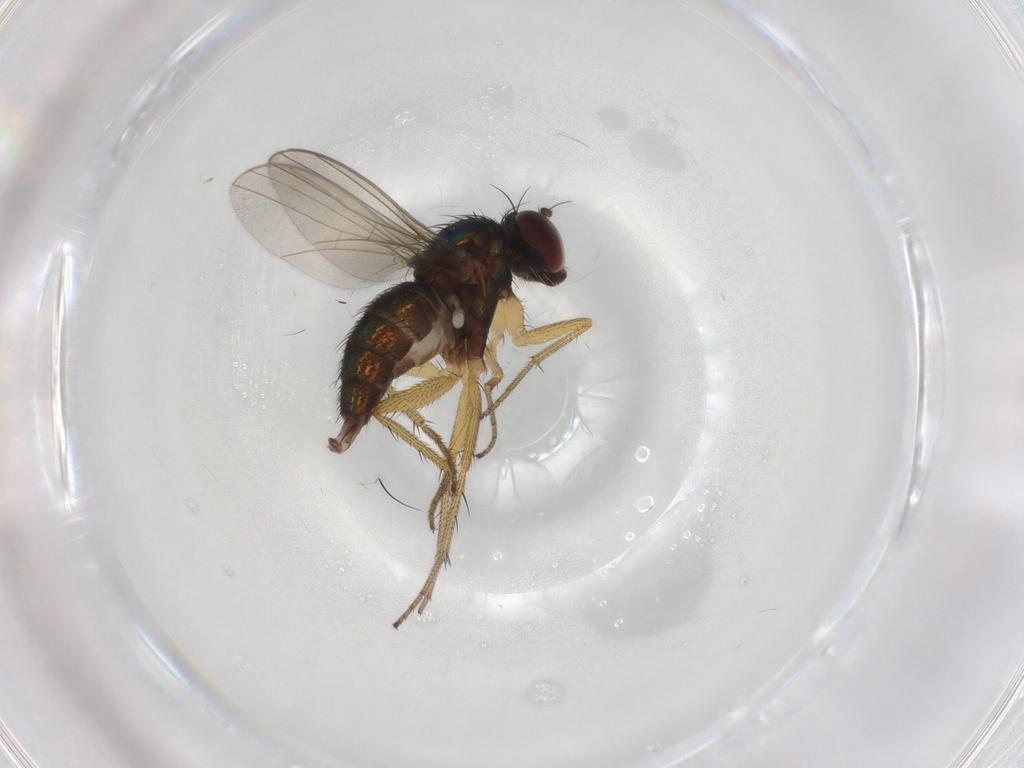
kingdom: Animalia
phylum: Arthropoda
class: Insecta
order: Diptera
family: Dolichopodidae
